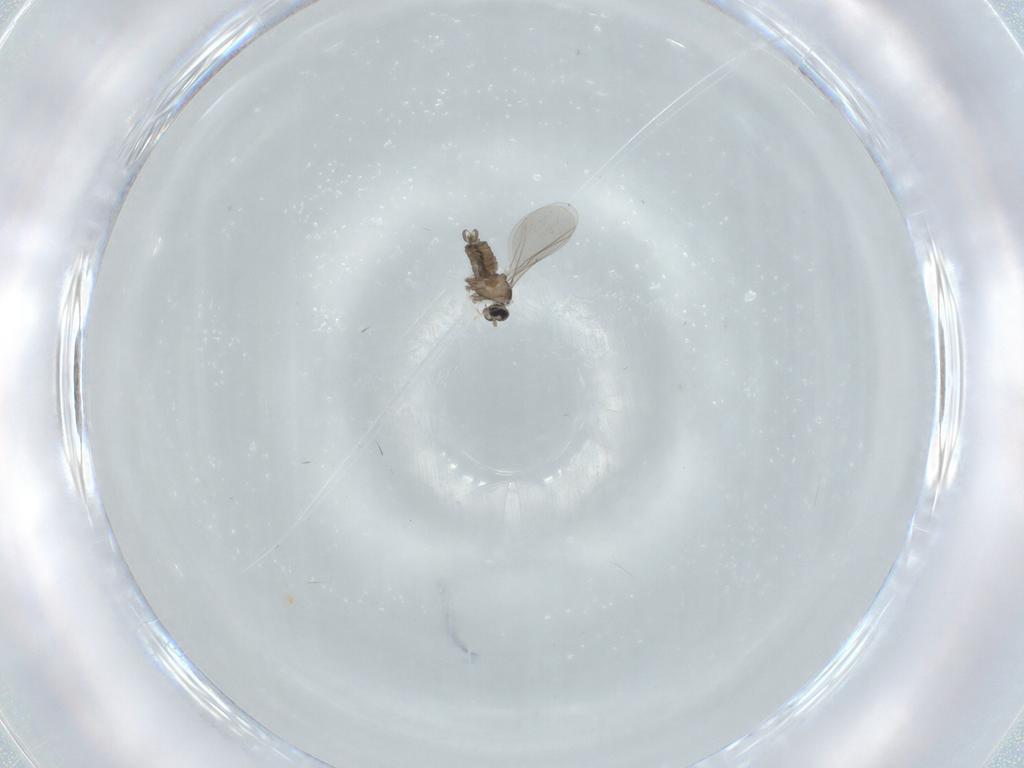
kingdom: Animalia
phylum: Arthropoda
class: Insecta
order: Diptera
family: Cecidomyiidae
